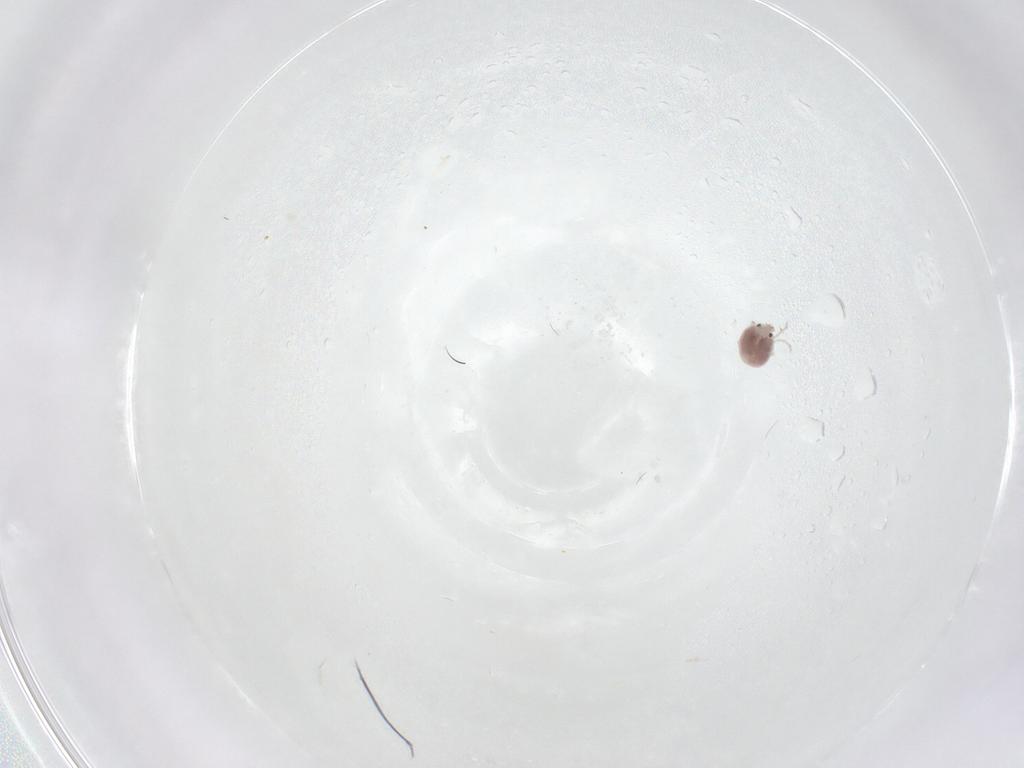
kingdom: Animalia
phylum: Arthropoda
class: Arachnida
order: Trombidiformes
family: Pionidae
